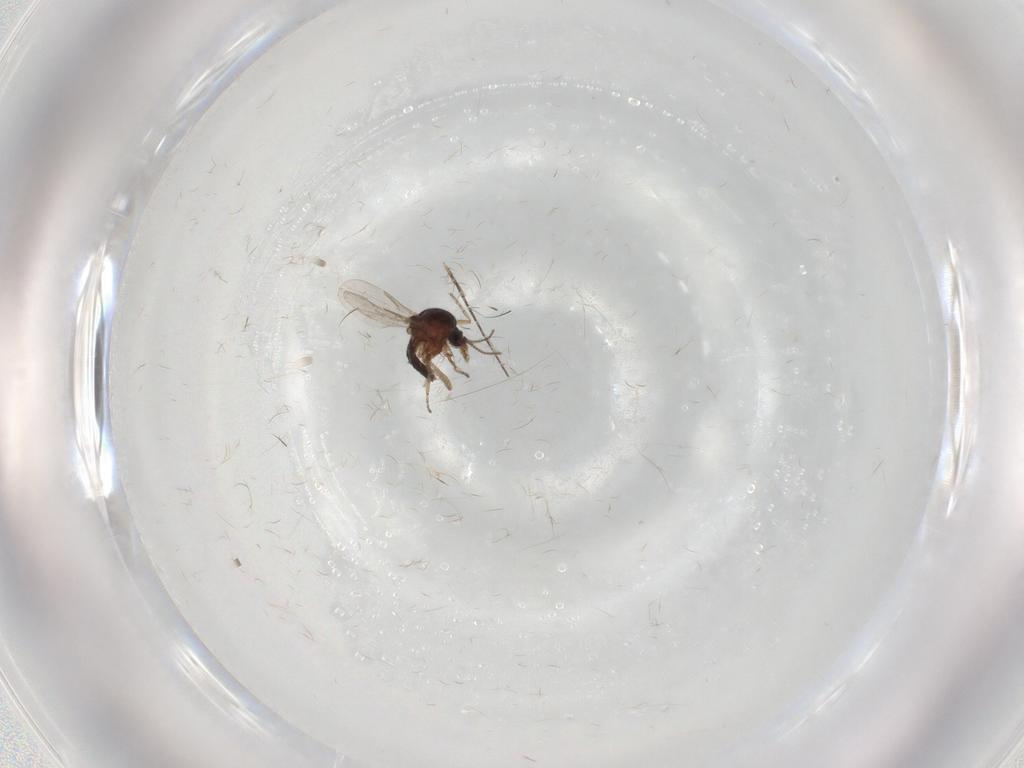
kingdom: Animalia
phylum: Arthropoda
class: Insecta
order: Diptera
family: Ceratopogonidae
